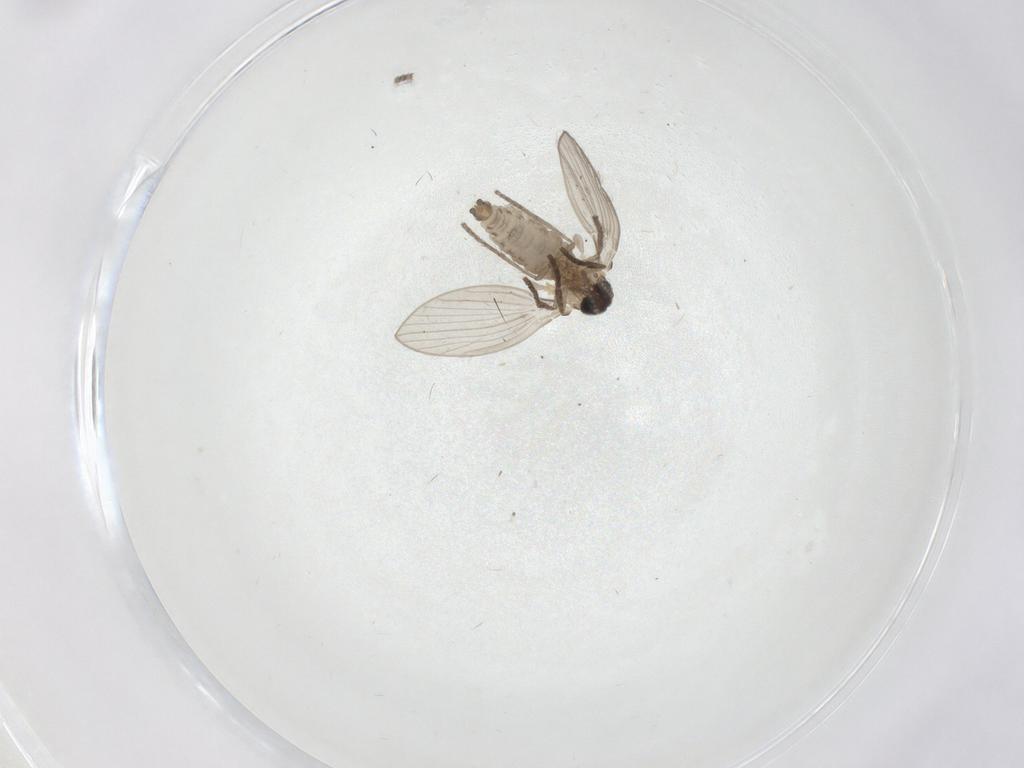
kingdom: Animalia
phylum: Arthropoda
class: Insecta
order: Diptera
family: Psychodidae
